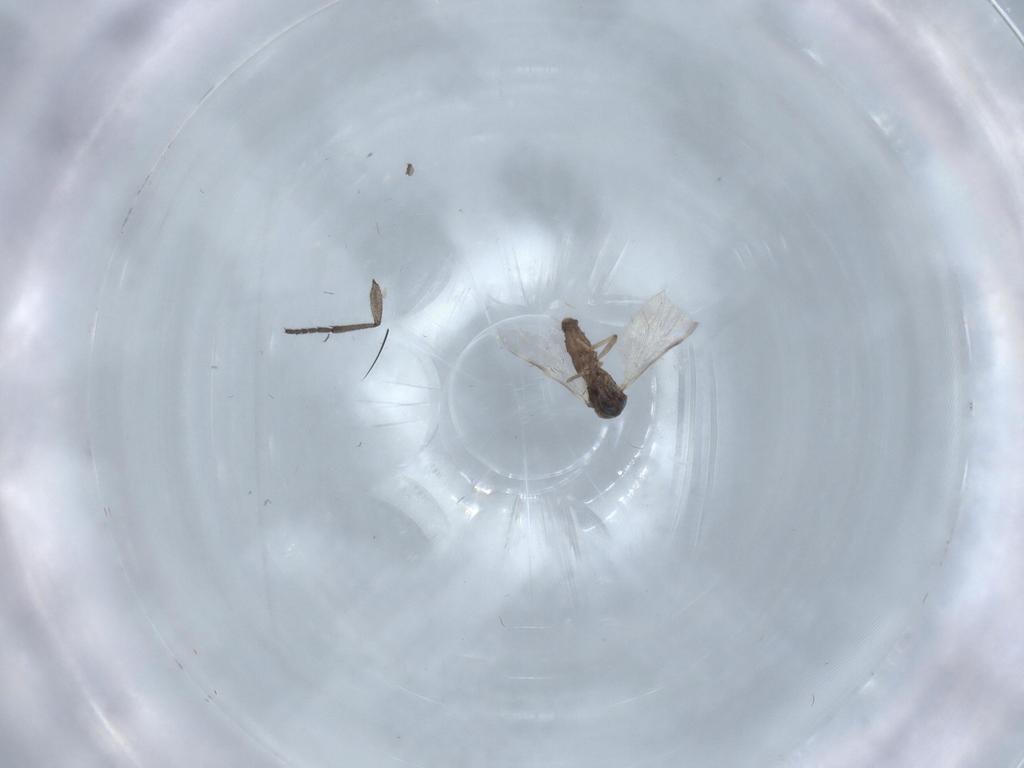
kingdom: Animalia
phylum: Arthropoda
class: Insecta
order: Diptera
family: Ceratopogonidae
